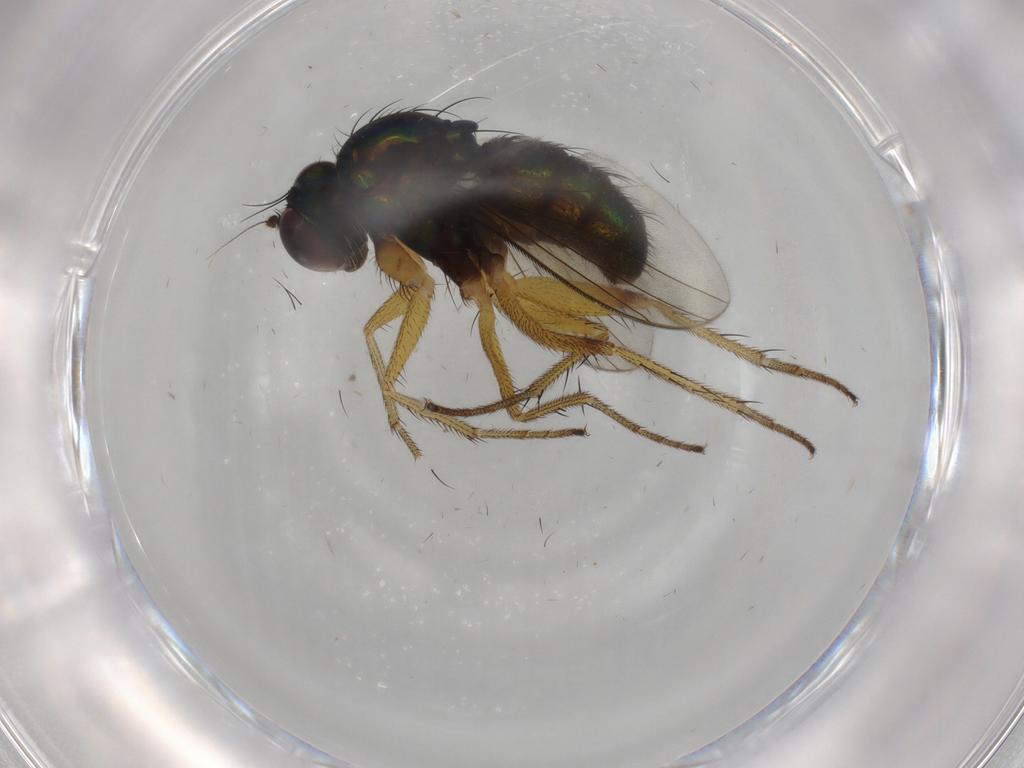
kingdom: Animalia
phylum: Arthropoda
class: Insecta
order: Diptera
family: Dolichopodidae
